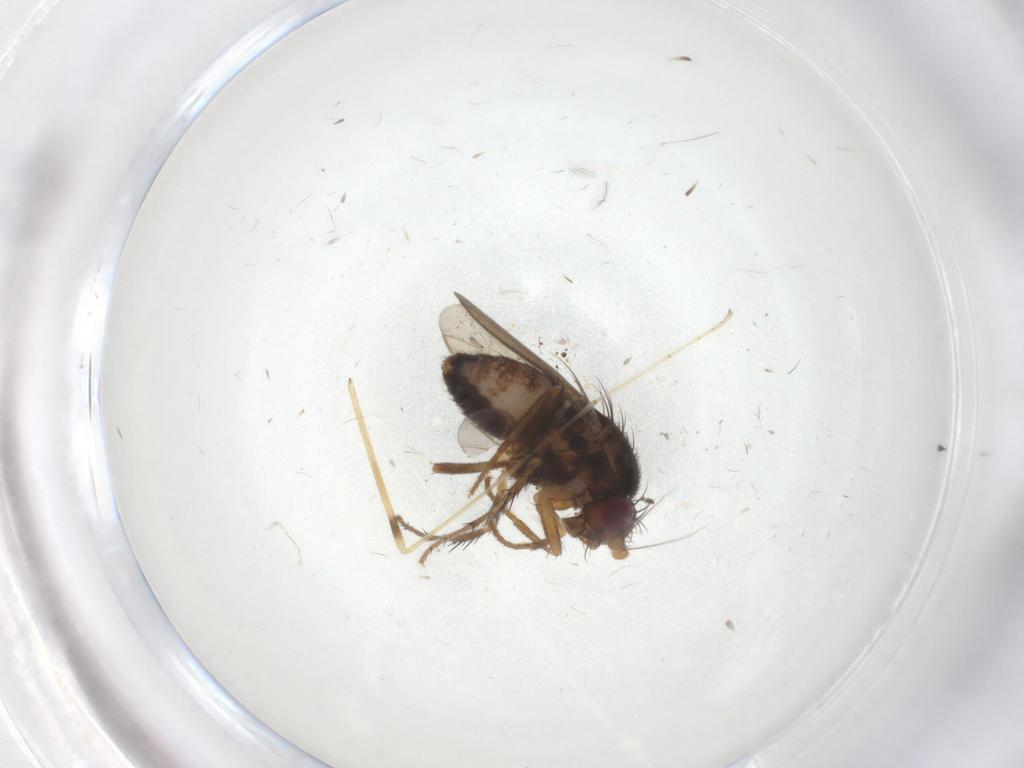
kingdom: Animalia
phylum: Arthropoda
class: Insecta
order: Diptera
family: Sphaeroceridae
